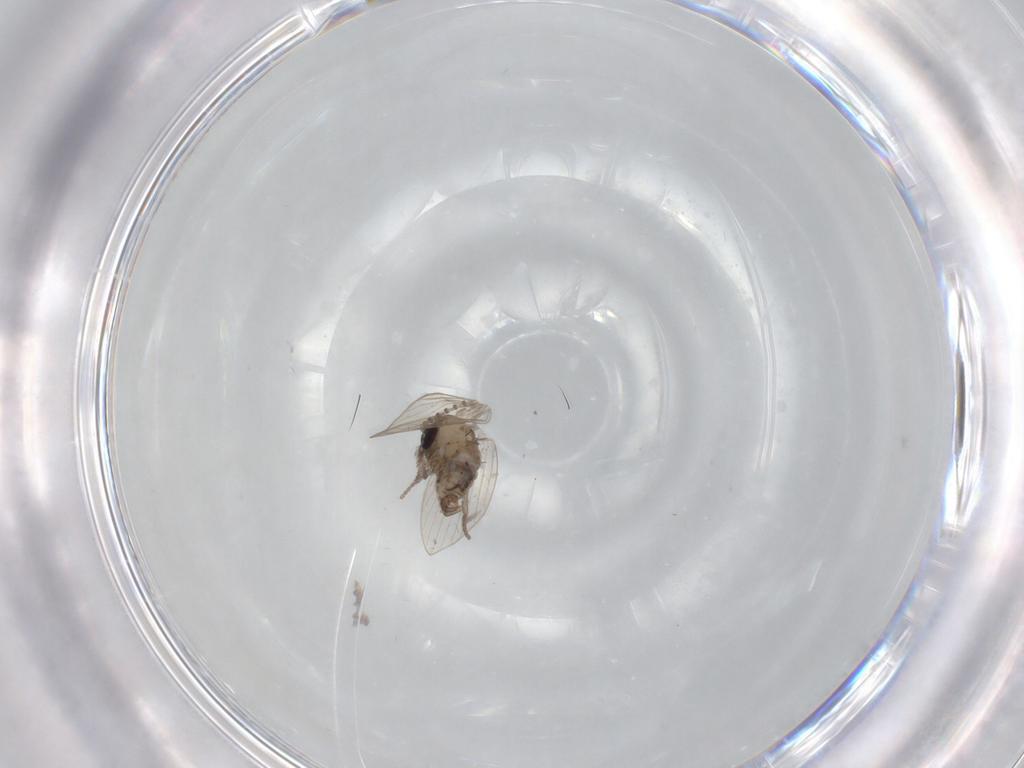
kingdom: Animalia
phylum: Arthropoda
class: Insecta
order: Diptera
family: Psychodidae
